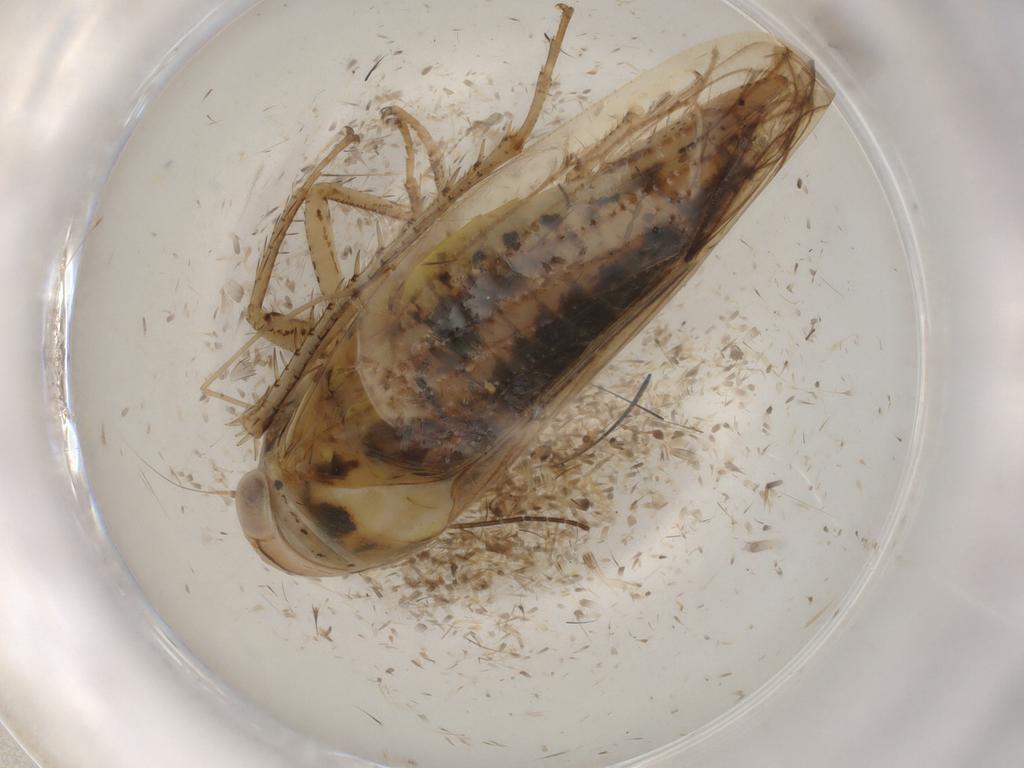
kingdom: Animalia
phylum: Arthropoda
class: Insecta
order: Hemiptera
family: Cicadellidae
